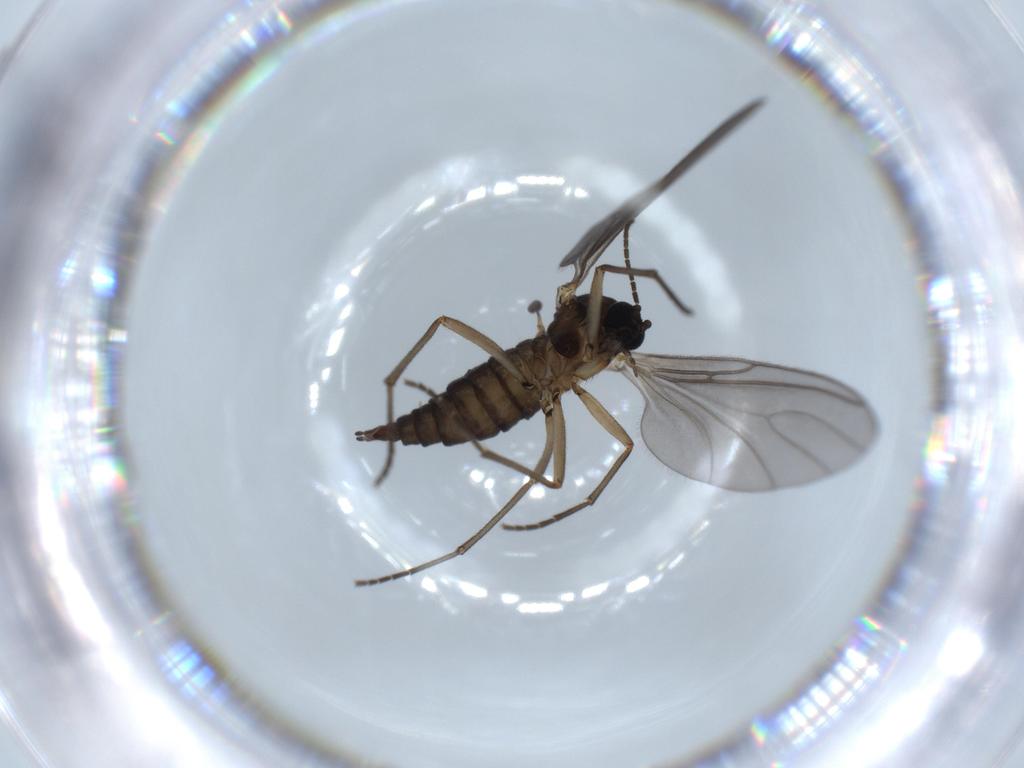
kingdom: Animalia
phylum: Arthropoda
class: Insecta
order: Diptera
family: Sciaridae
